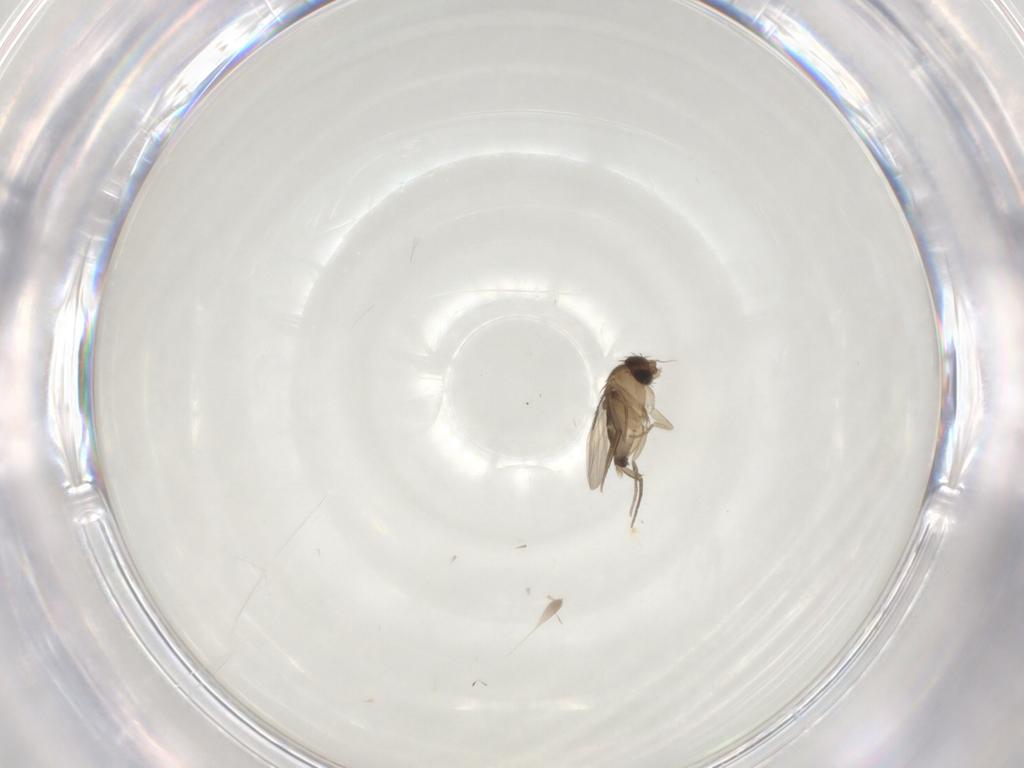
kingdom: Animalia
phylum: Arthropoda
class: Insecta
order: Diptera
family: Phoridae
